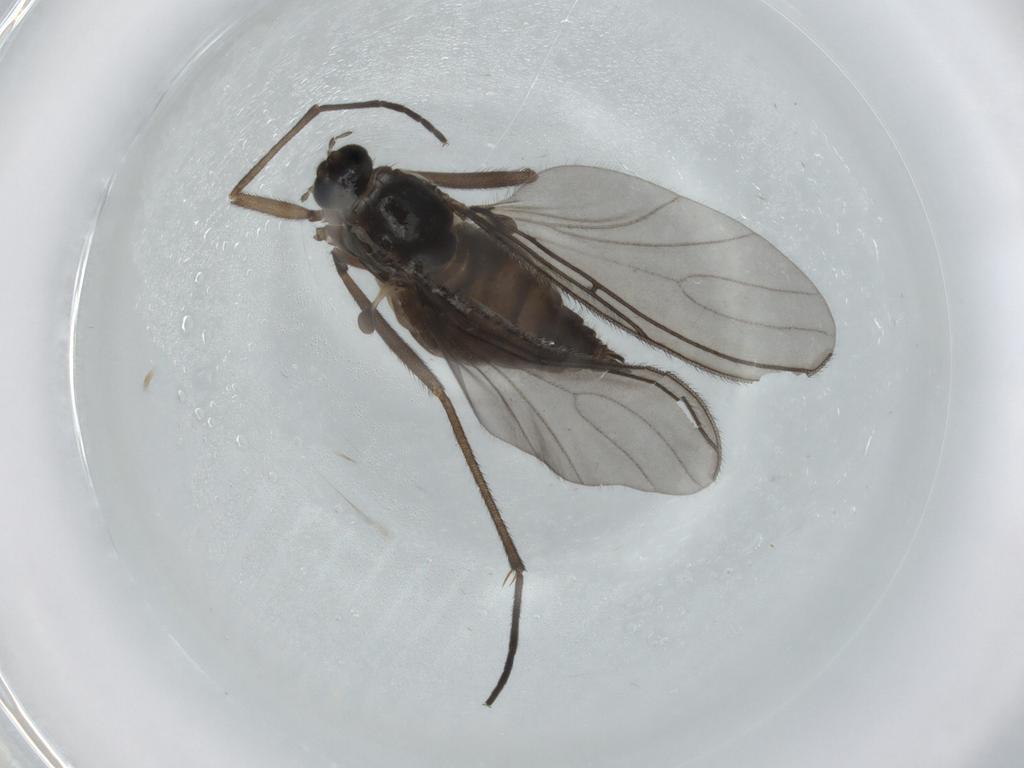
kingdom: Animalia
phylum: Arthropoda
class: Insecta
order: Diptera
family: Sciaridae
